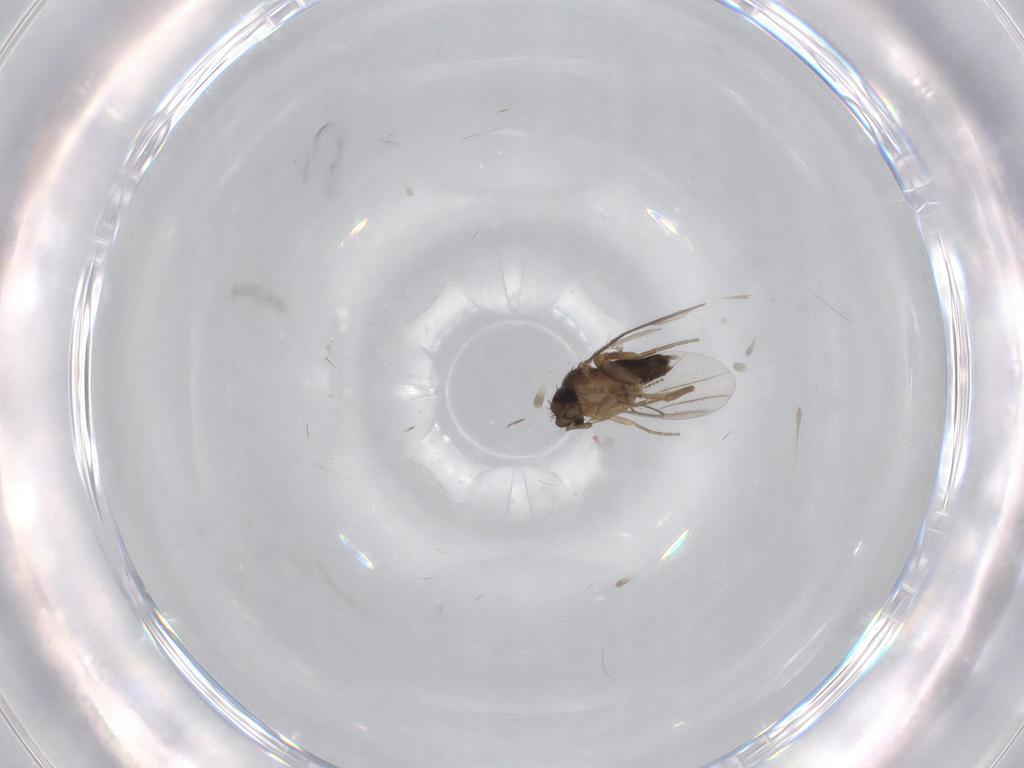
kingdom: Animalia
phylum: Arthropoda
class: Insecta
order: Diptera
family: Phoridae
